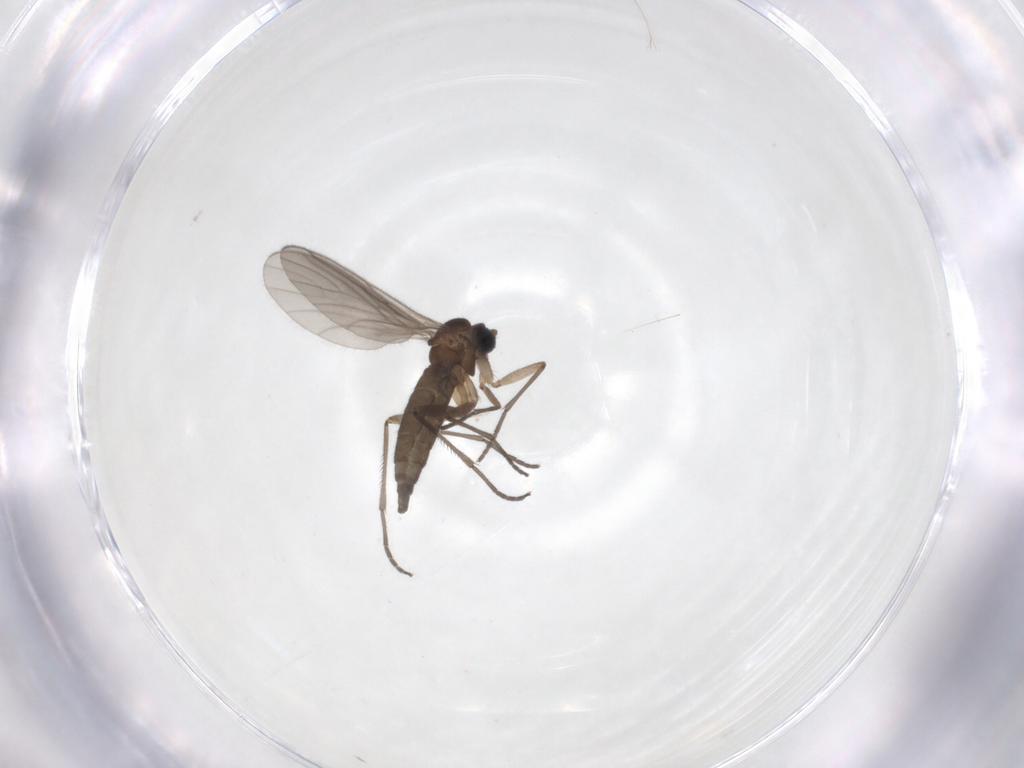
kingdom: Animalia
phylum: Arthropoda
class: Insecta
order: Diptera
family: Sciaridae
